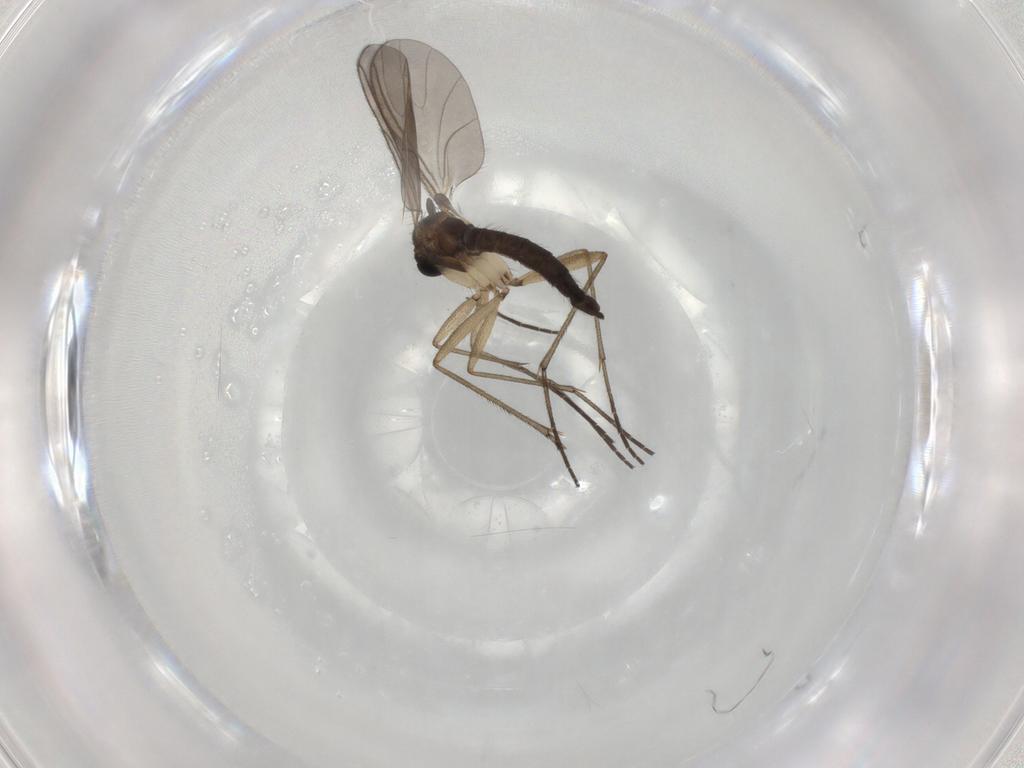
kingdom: Animalia
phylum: Arthropoda
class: Insecta
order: Diptera
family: Sciaridae
